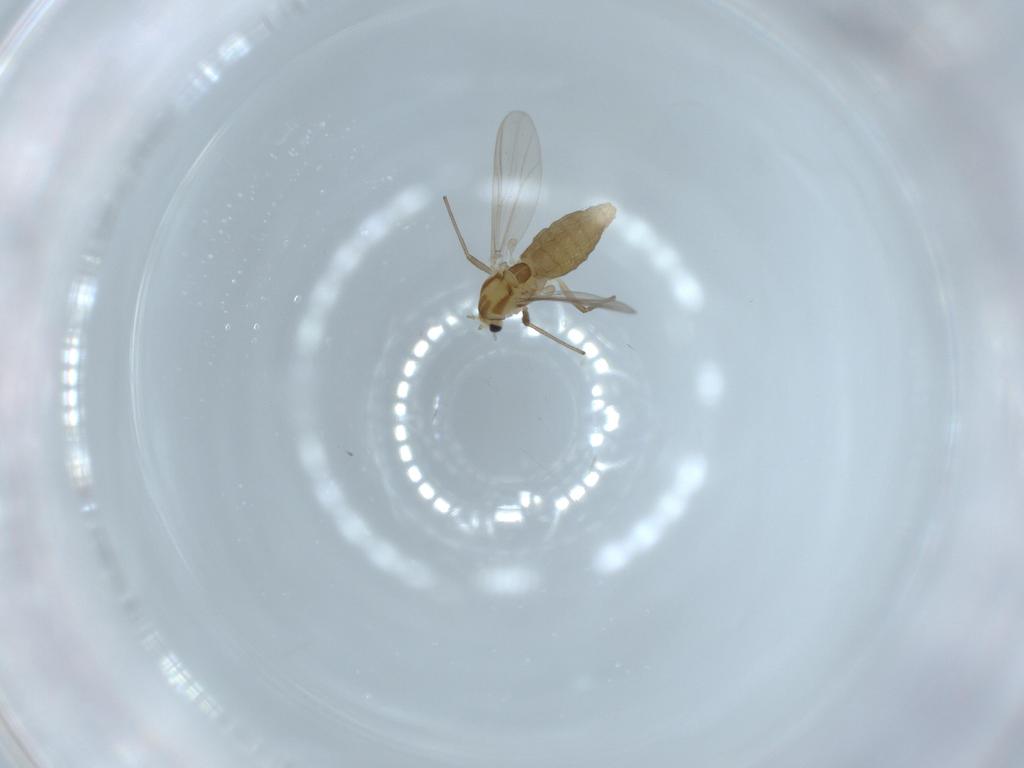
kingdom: Animalia
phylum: Arthropoda
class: Insecta
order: Diptera
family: Chironomidae
